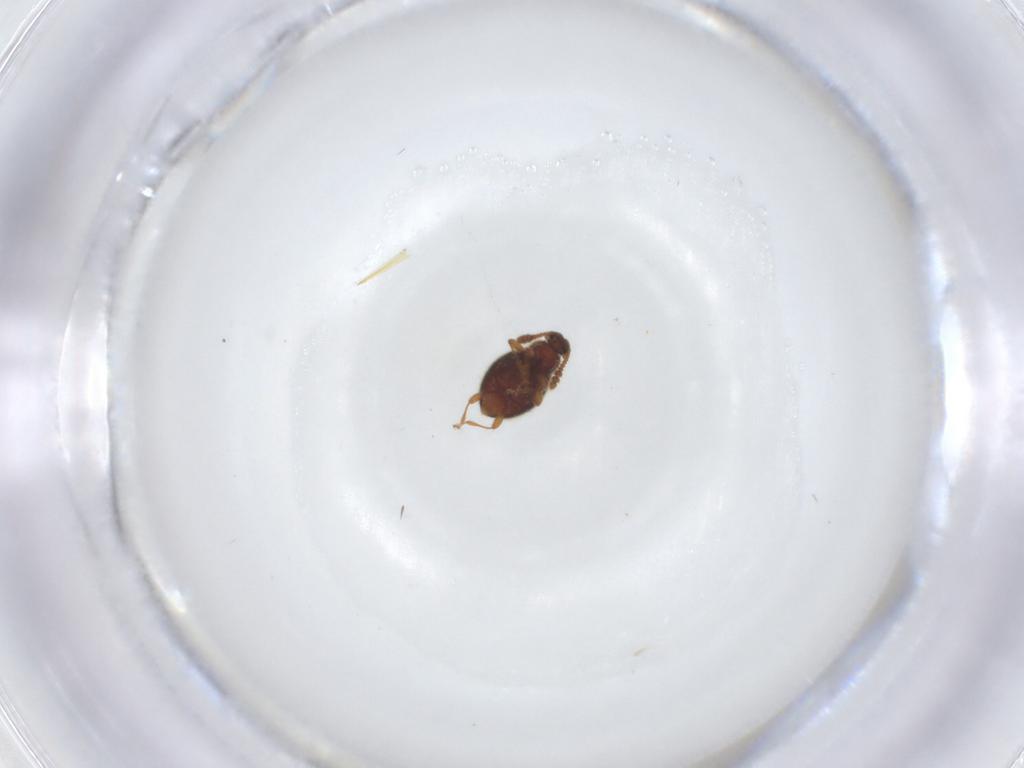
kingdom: Animalia
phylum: Arthropoda
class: Insecta
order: Coleoptera
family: Staphylinidae
